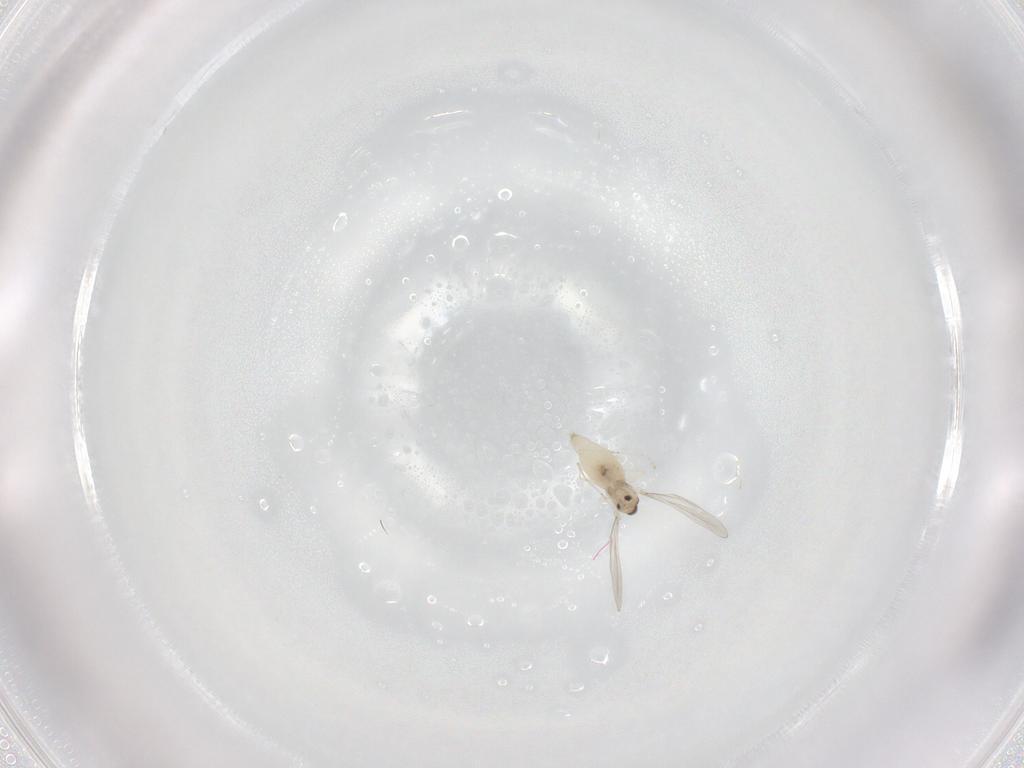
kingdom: Animalia
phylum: Arthropoda
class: Insecta
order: Diptera
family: Cecidomyiidae
